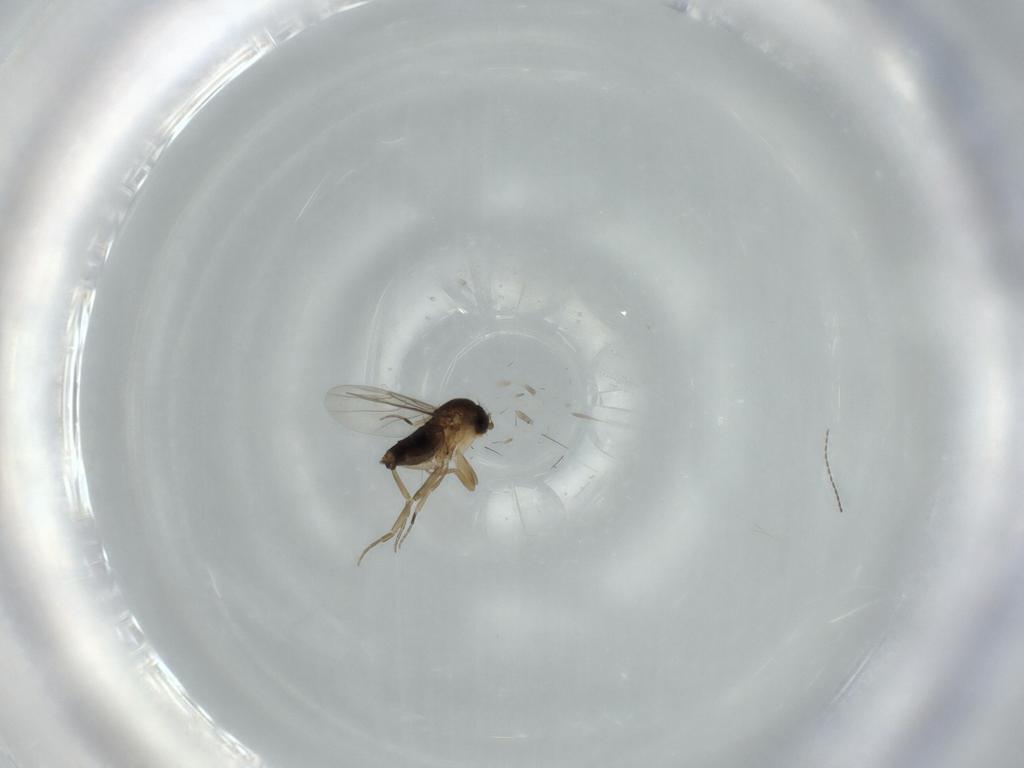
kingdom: Animalia
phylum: Arthropoda
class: Insecta
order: Diptera
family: Phoridae
